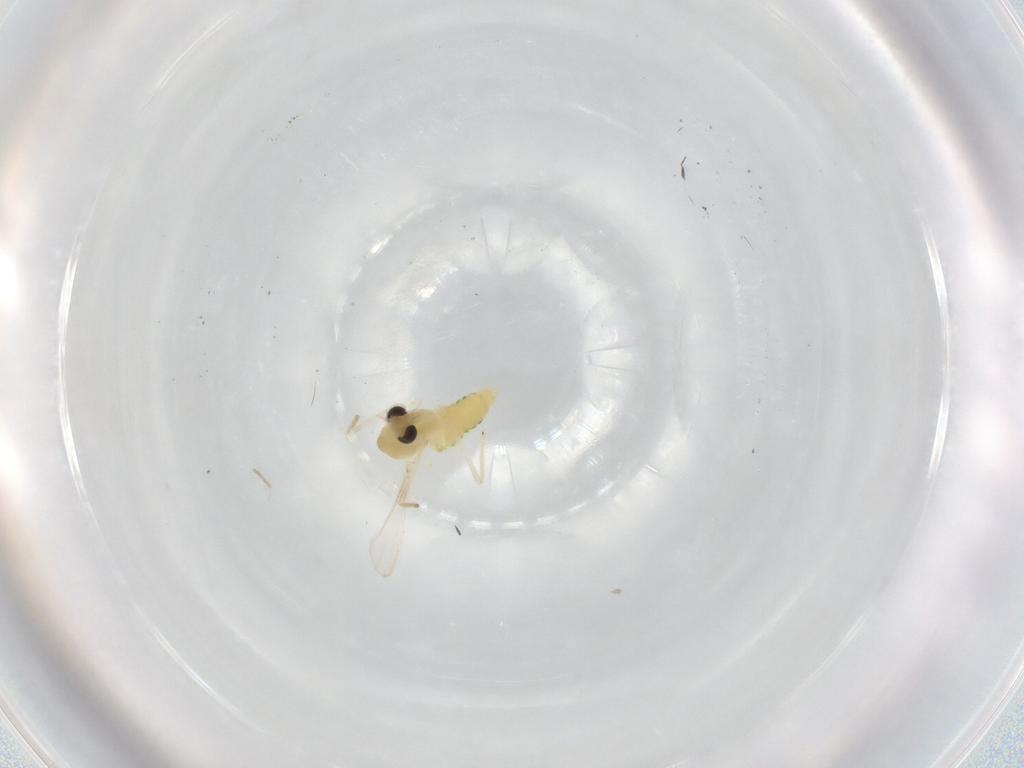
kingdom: Animalia
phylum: Arthropoda
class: Insecta
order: Diptera
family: Chironomidae
